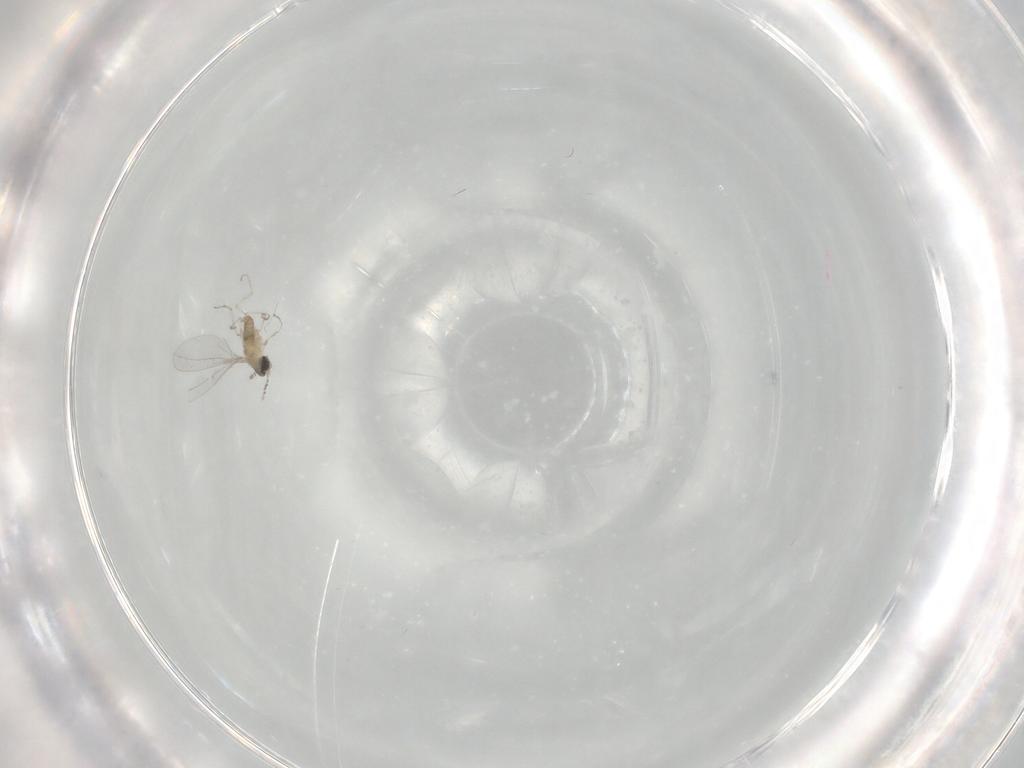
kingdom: Animalia
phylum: Arthropoda
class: Insecta
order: Diptera
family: Cecidomyiidae
